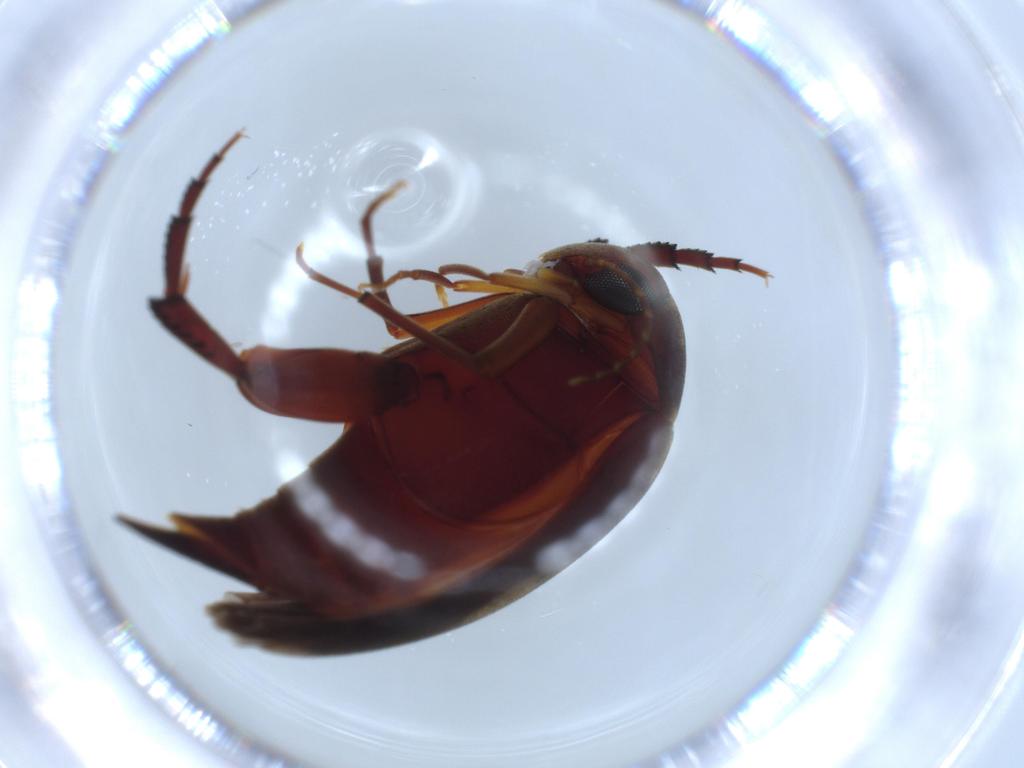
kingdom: Animalia
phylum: Arthropoda
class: Insecta
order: Coleoptera
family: Mordellidae
